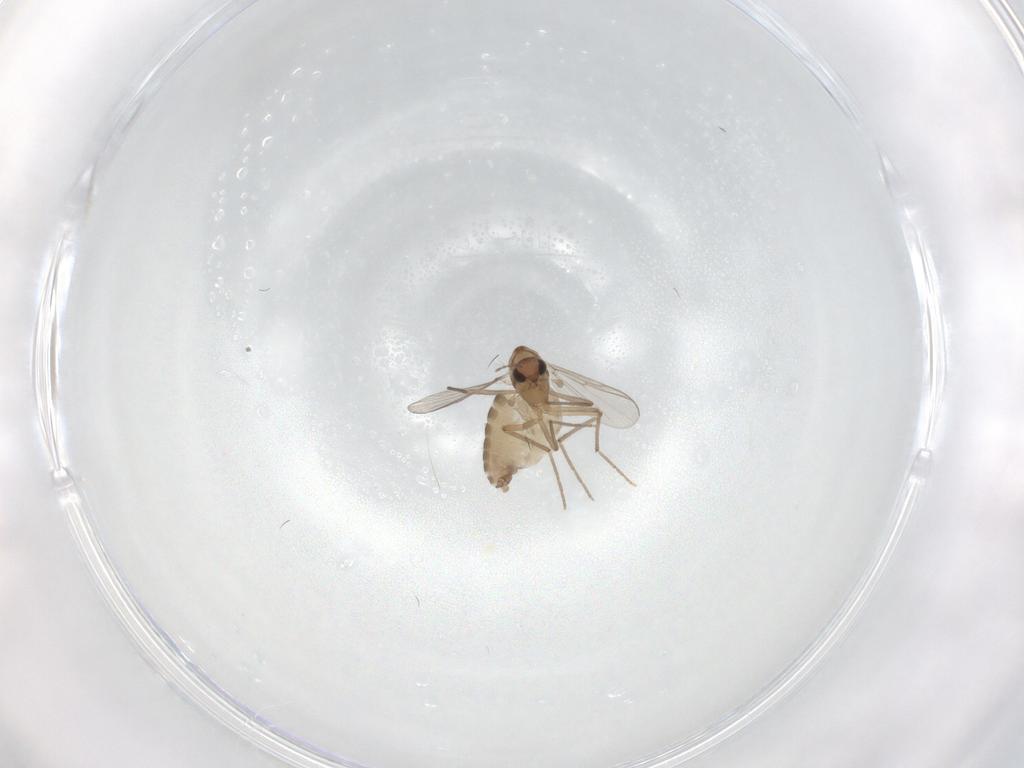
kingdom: Animalia
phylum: Arthropoda
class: Insecta
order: Diptera
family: Chironomidae
